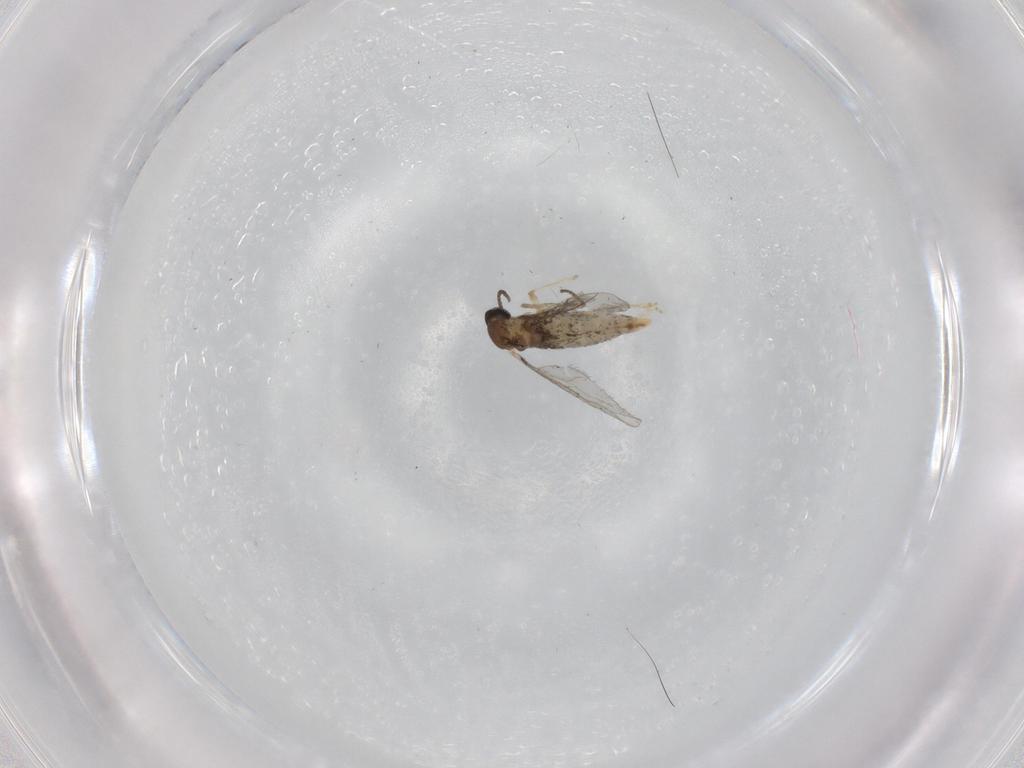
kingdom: Animalia
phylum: Arthropoda
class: Insecta
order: Diptera
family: Cecidomyiidae
